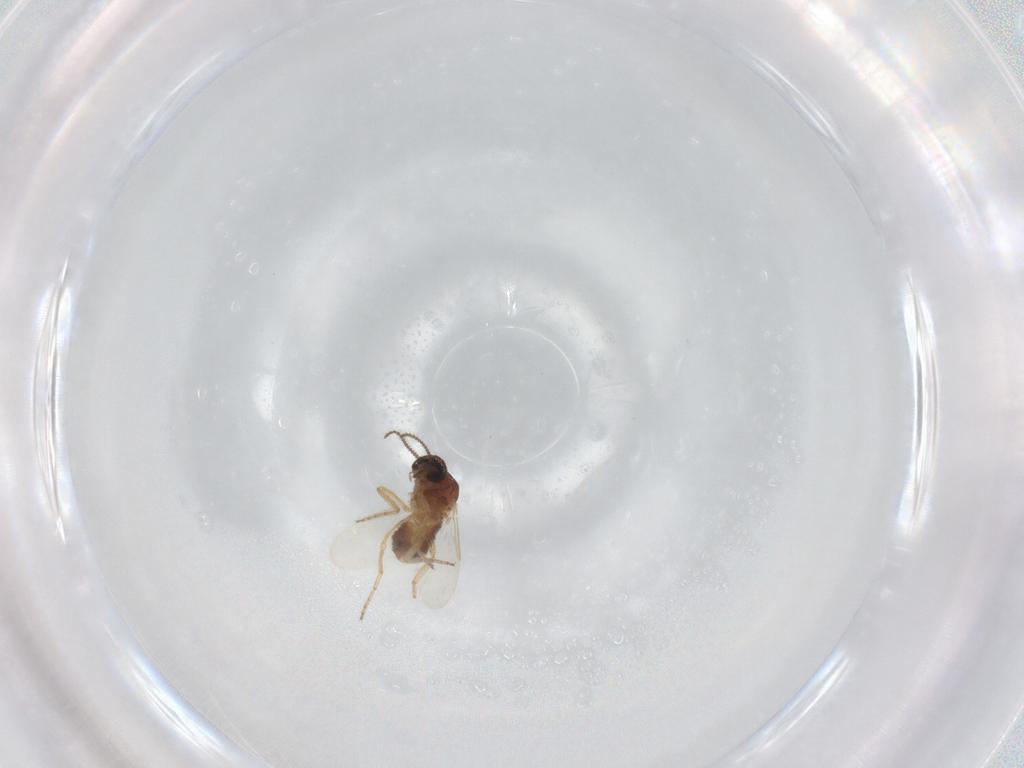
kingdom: Animalia
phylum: Arthropoda
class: Insecta
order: Diptera
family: Ceratopogonidae
